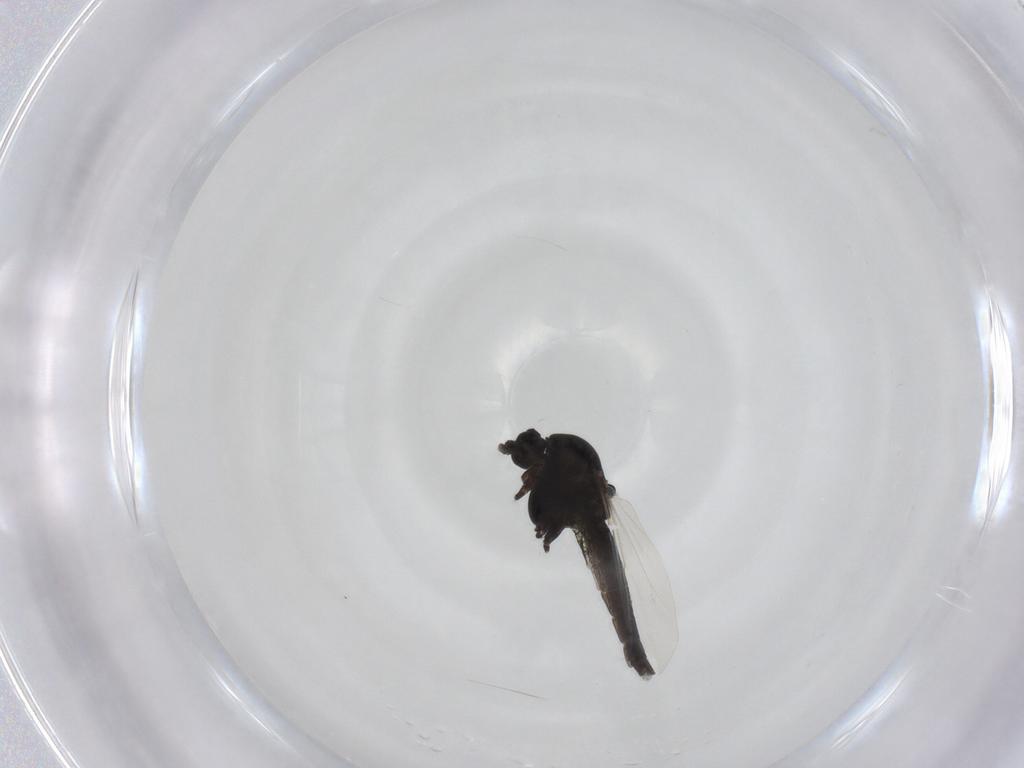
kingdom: Animalia
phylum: Arthropoda
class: Insecta
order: Diptera
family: Chironomidae
